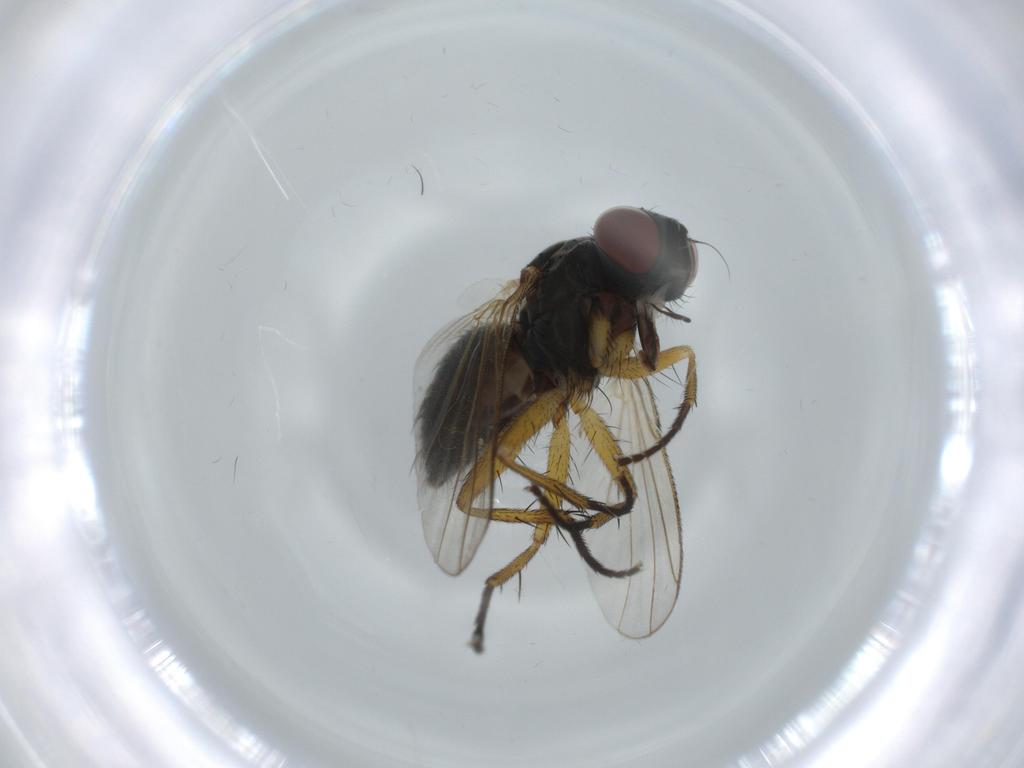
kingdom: Animalia
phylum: Arthropoda
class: Insecta
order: Diptera
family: Muscidae
